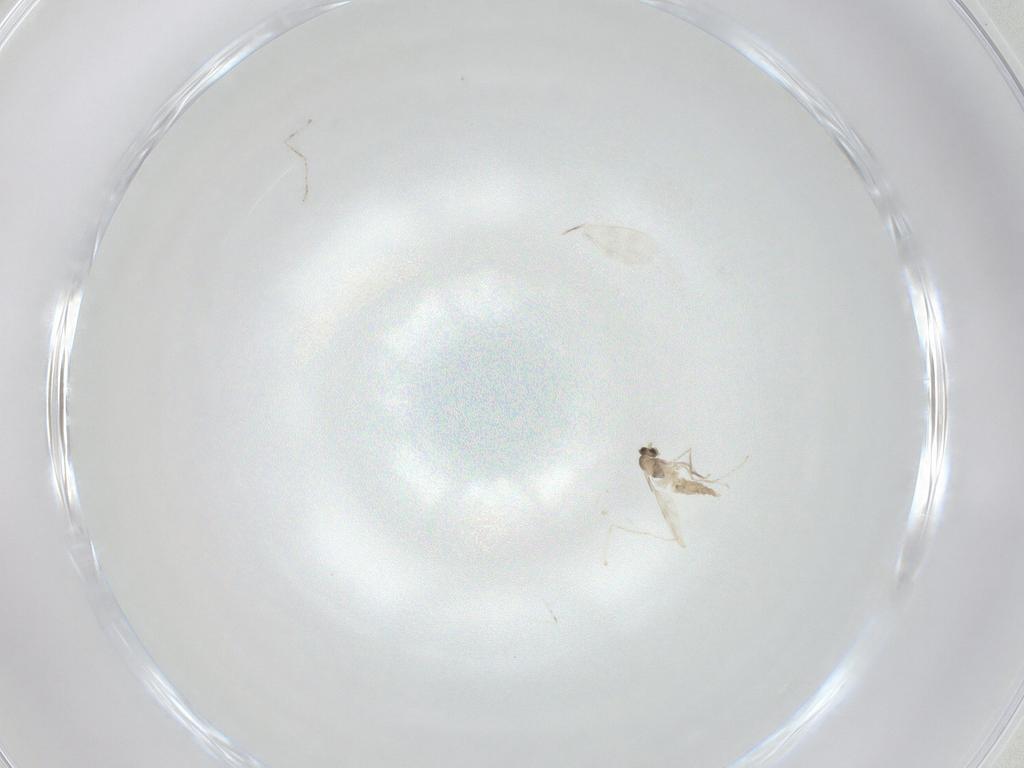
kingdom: Animalia
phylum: Arthropoda
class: Insecta
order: Diptera
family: Cecidomyiidae
